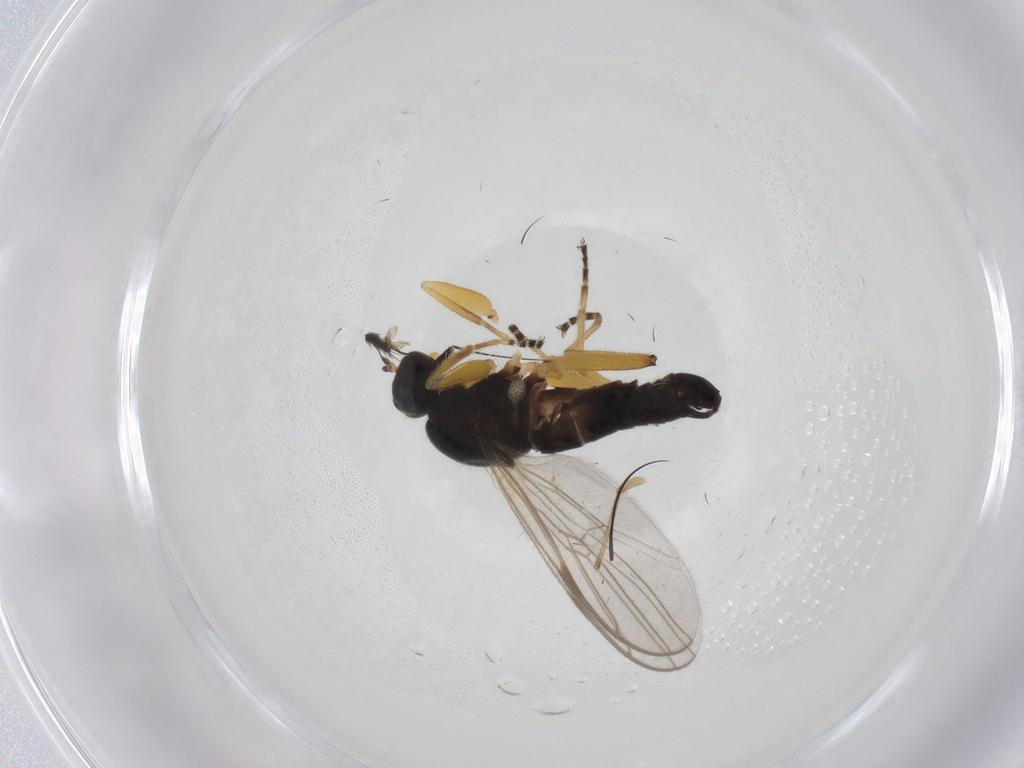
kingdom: Animalia
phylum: Arthropoda
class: Insecta
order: Diptera
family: Hybotidae
